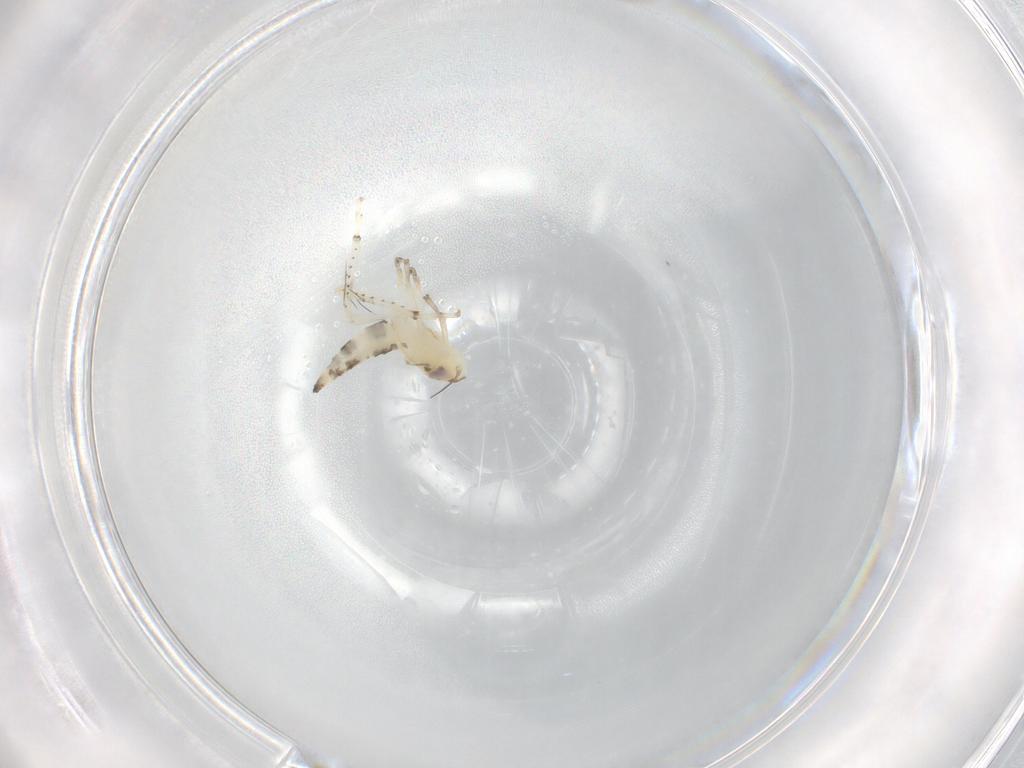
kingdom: Animalia
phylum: Arthropoda
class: Insecta
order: Hemiptera
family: Cicadellidae
